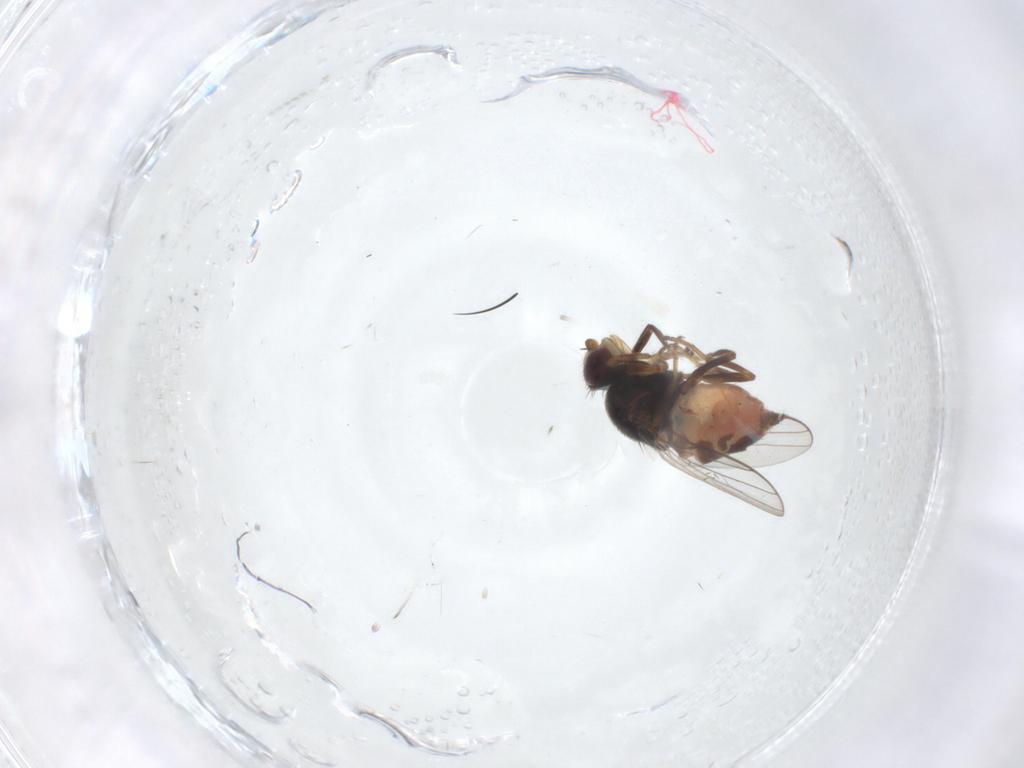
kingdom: Animalia
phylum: Arthropoda
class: Insecta
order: Diptera
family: Chloropidae
